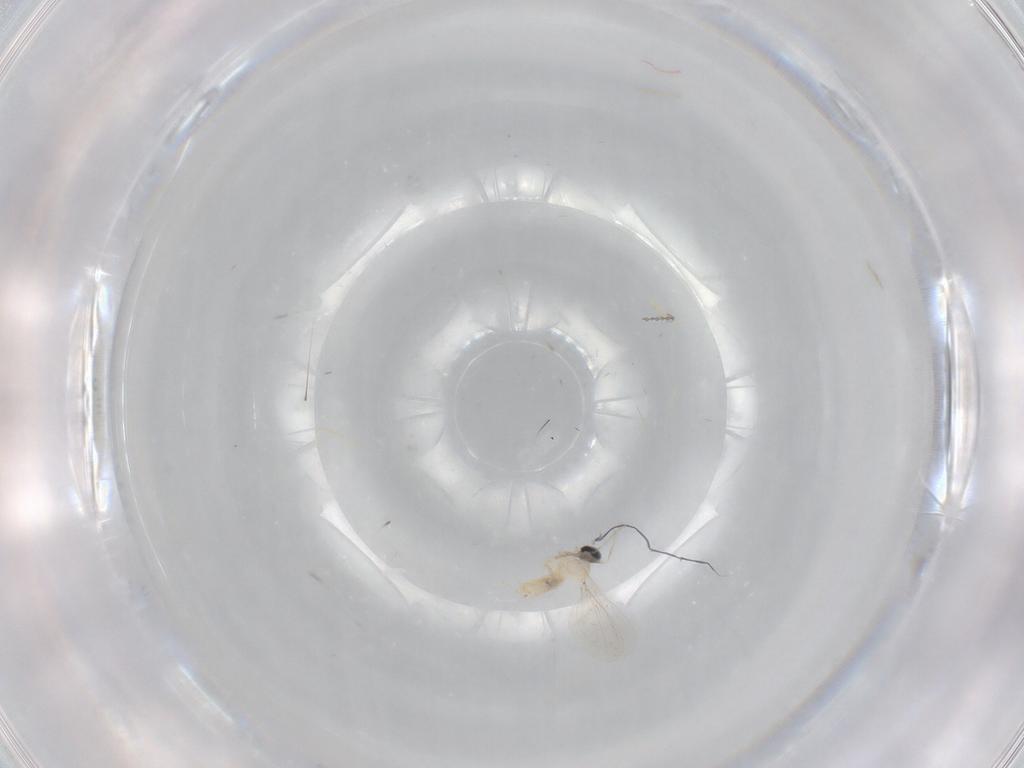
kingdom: Animalia
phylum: Arthropoda
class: Insecta
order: Diptera
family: Cecidomyiidae
